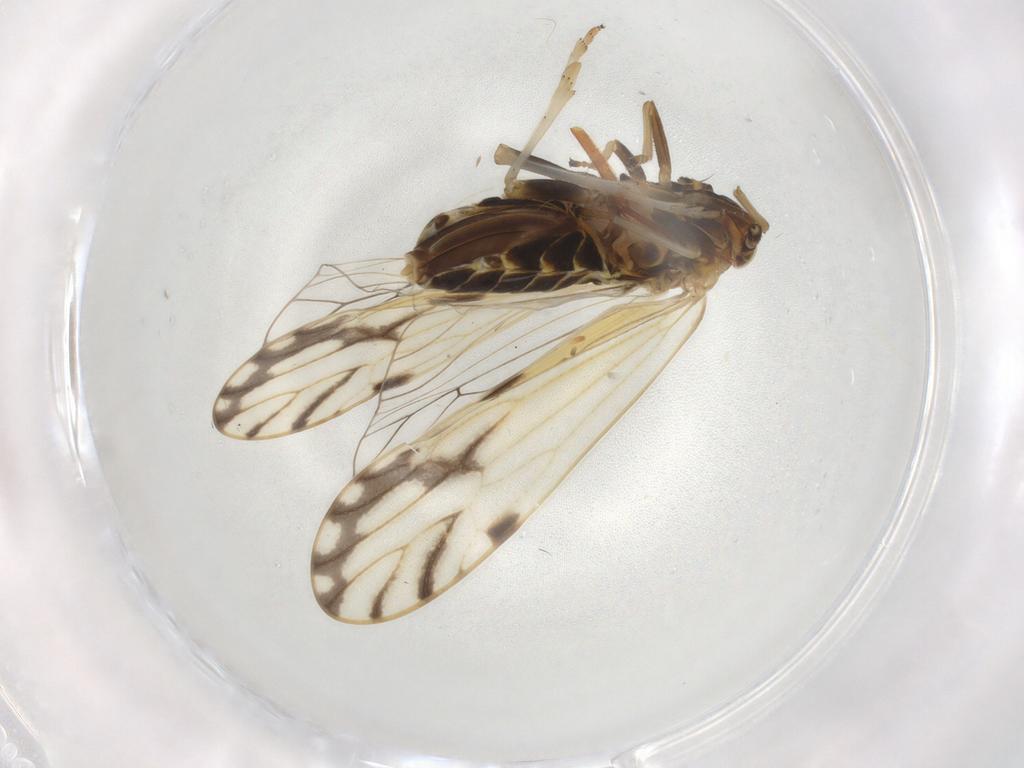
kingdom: Animalia
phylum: Arthropoda
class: Insecta
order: Hemiptera
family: Delphacidae
